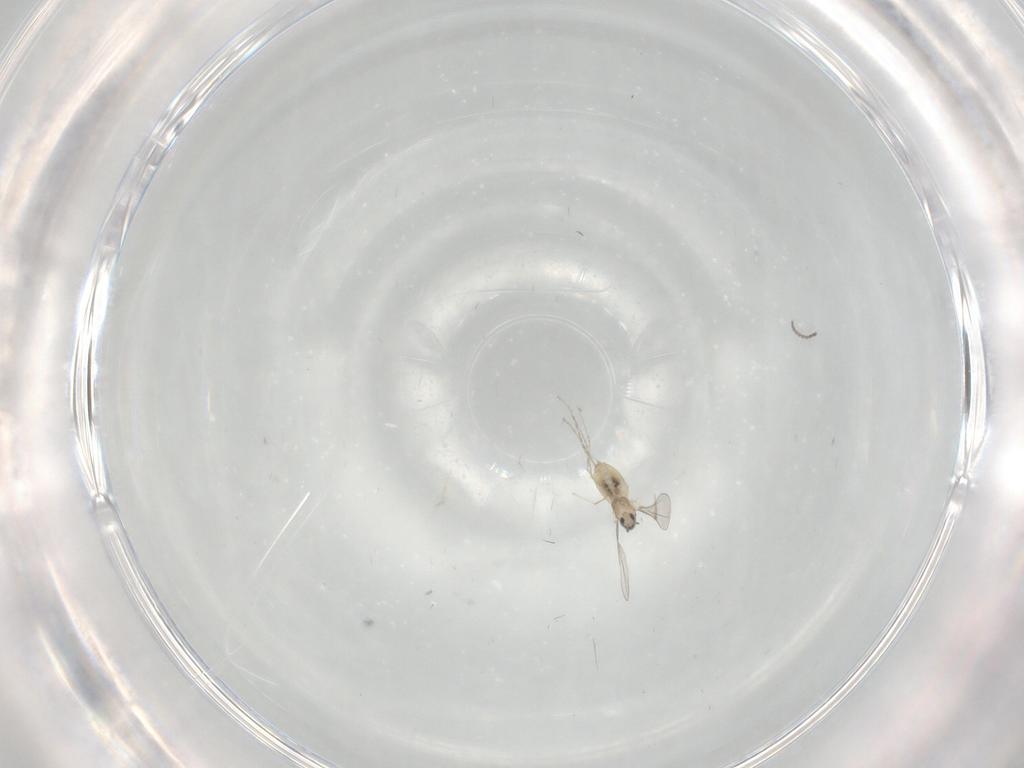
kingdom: Animalia
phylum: Arthropoda
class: Insecta
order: Diptera
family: Cecidomyiidae
